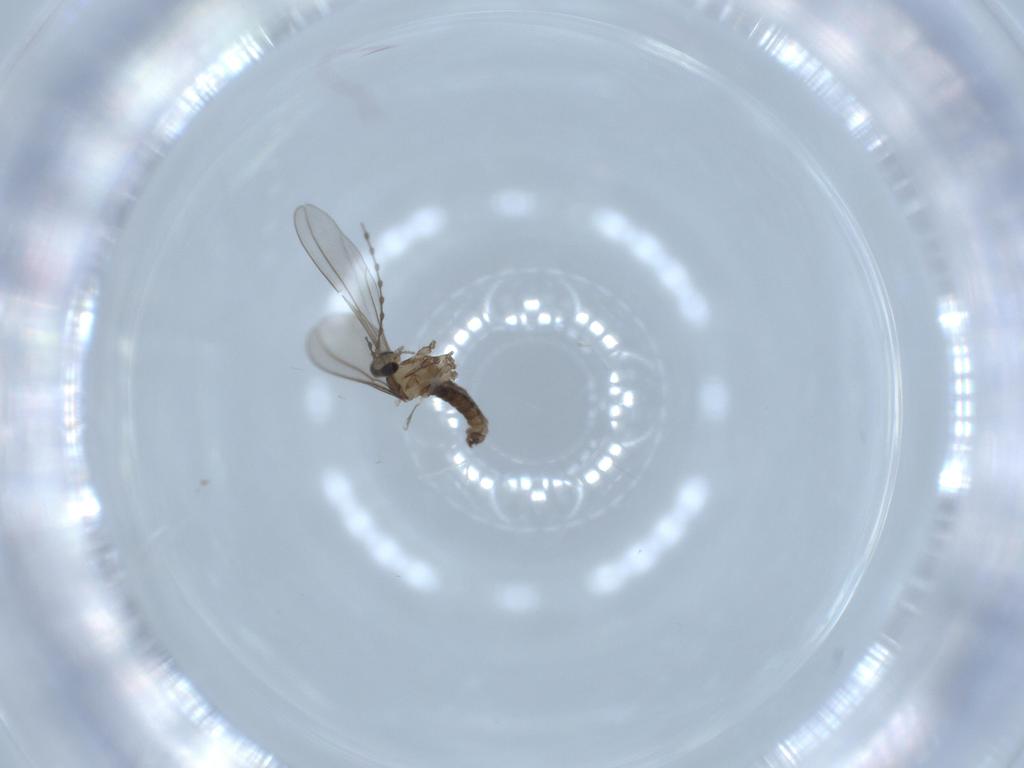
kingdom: Animalia
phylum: Arthropoda
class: Insecta
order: Diptera
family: Cecidomyiidae
